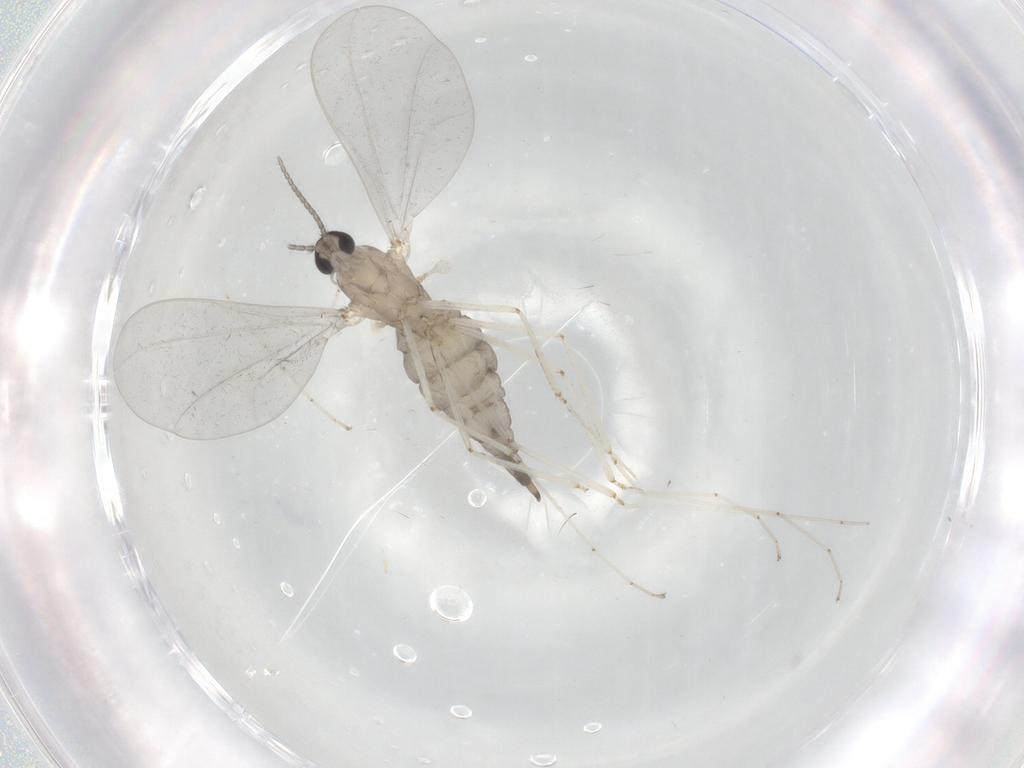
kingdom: Animalia
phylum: Arthropoda
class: Insecta
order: Diptera
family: Cecidomyiidae
